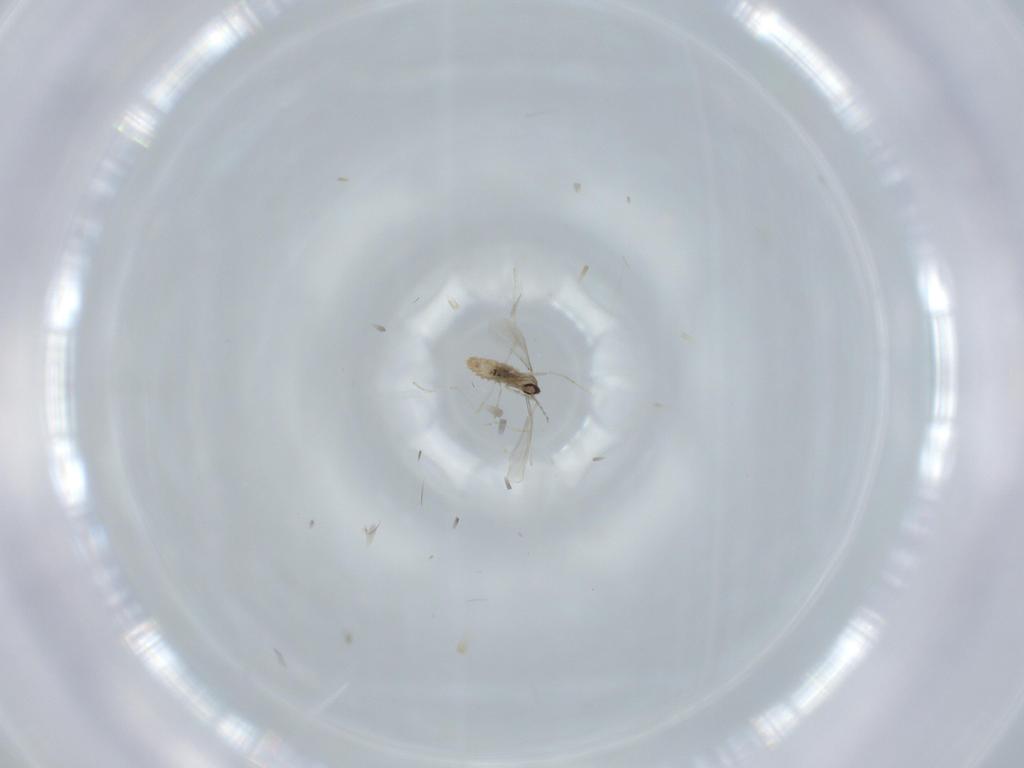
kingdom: Animalia
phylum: Arthropoda
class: Insecta
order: Diptera
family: Cecidomyiidae
